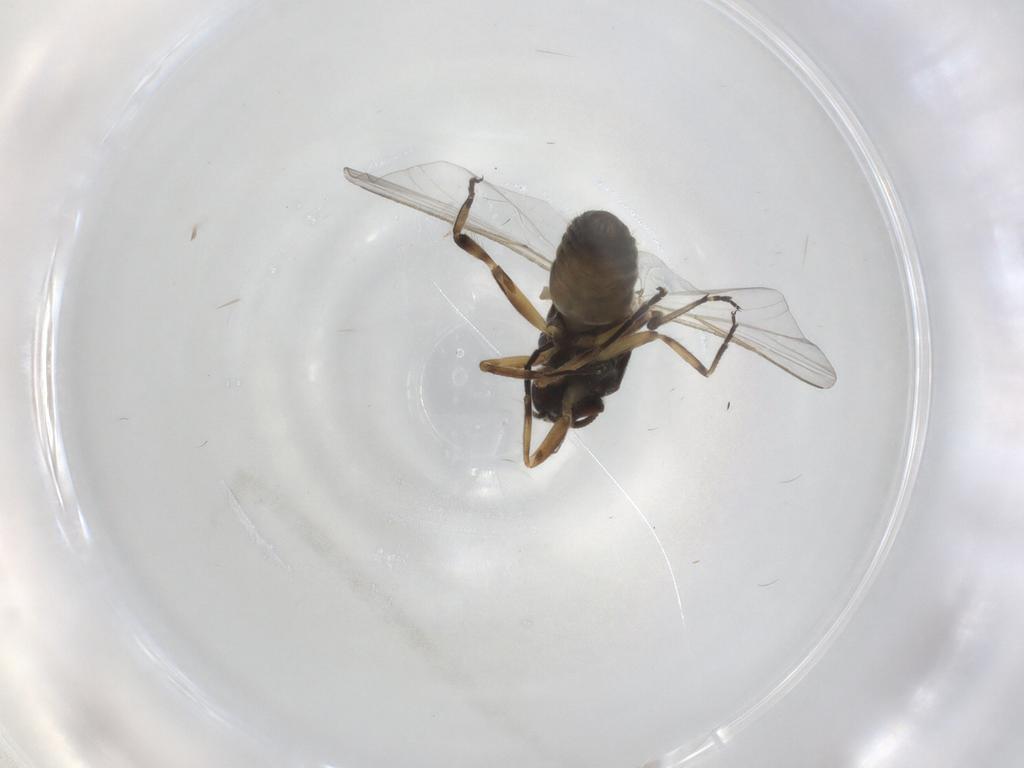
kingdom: Animalia
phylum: Arthropoda
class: Insecta
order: Diptera
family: Ceratopogonidae
